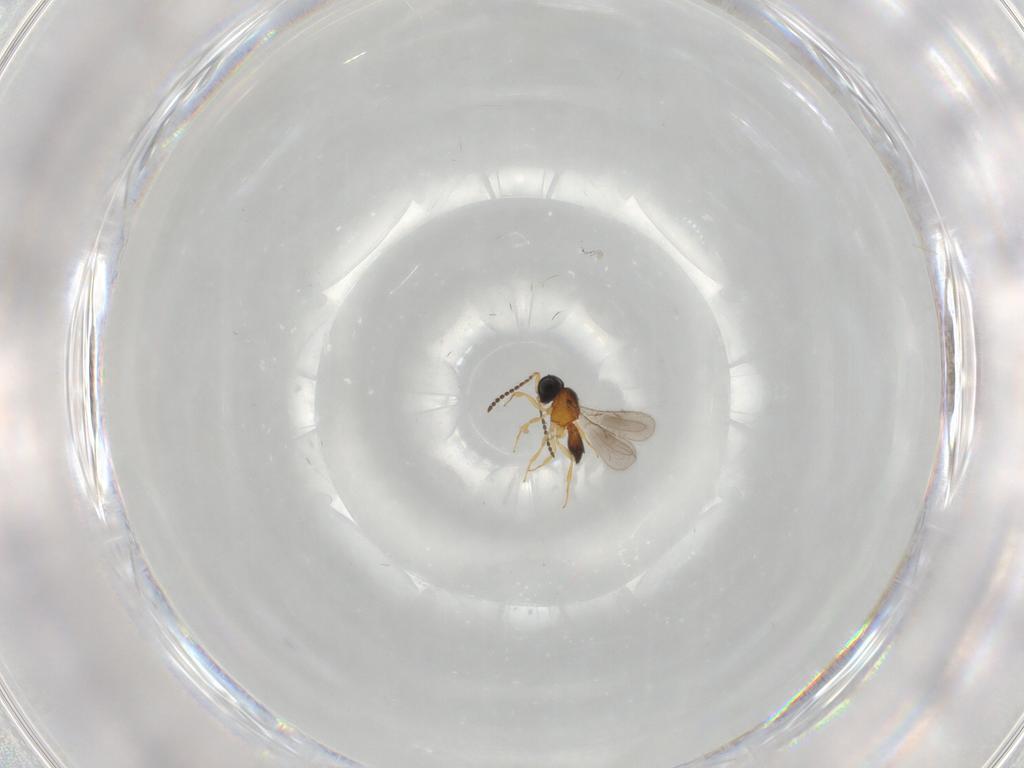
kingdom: Animalia
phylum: Arthropoda
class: Insecta
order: Hymenoptera
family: Scelionidae
